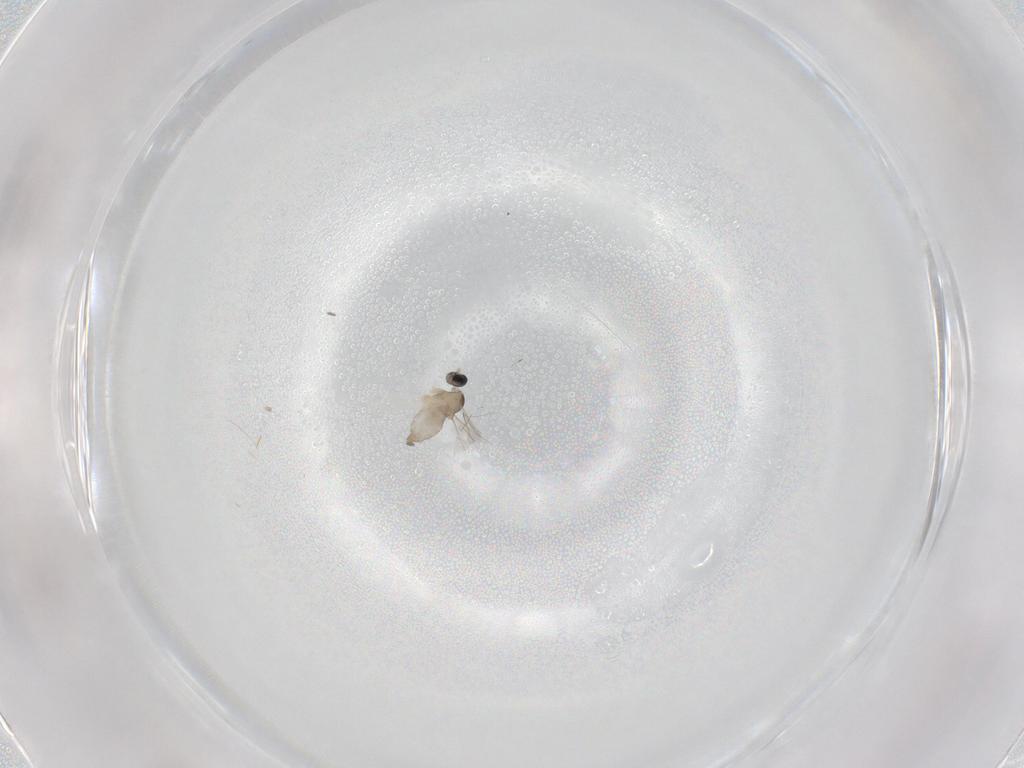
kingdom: Animalia
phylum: Arthropoda
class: Insecta
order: Diptera
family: Cecidomyiidae
